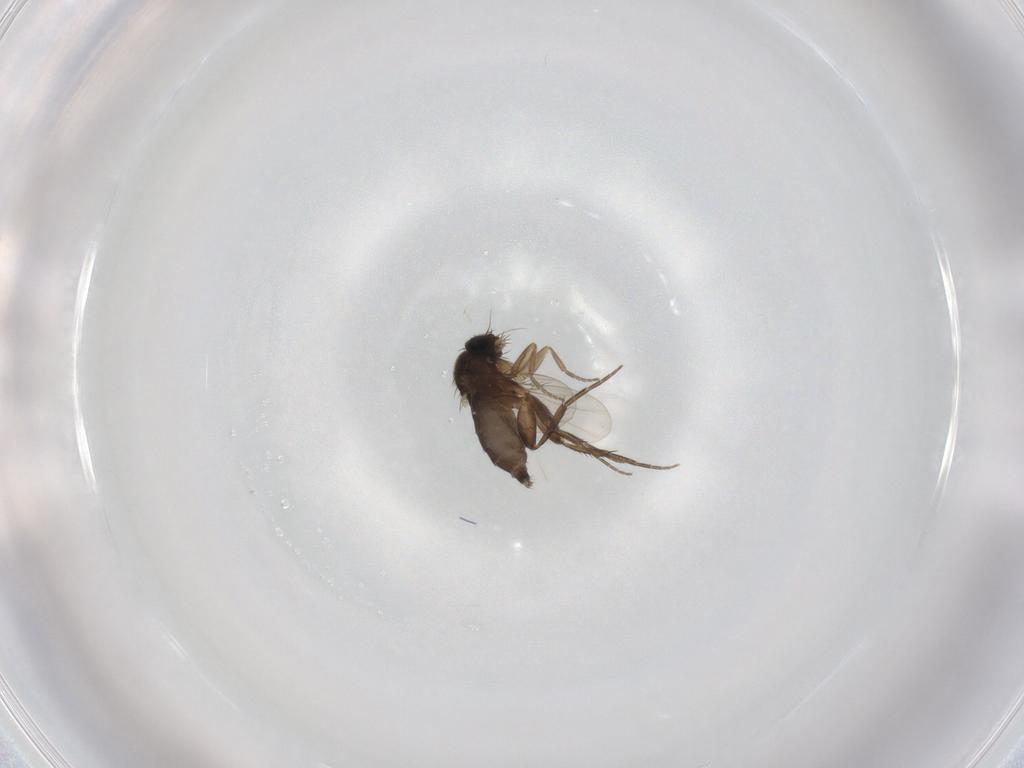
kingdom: Animalia
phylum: Arthropoda
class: Insecta
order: Diptera
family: Phoridae
